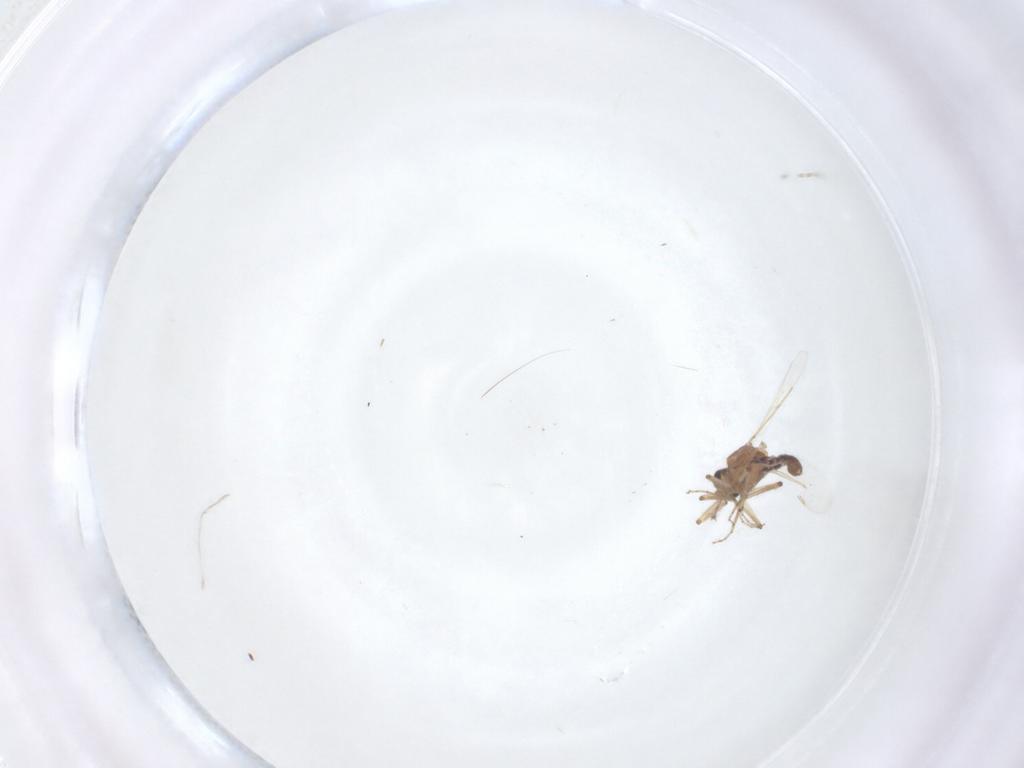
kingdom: Animalia
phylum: Arthropoda
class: Insecta
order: Diptera
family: Ceratopogonidae
